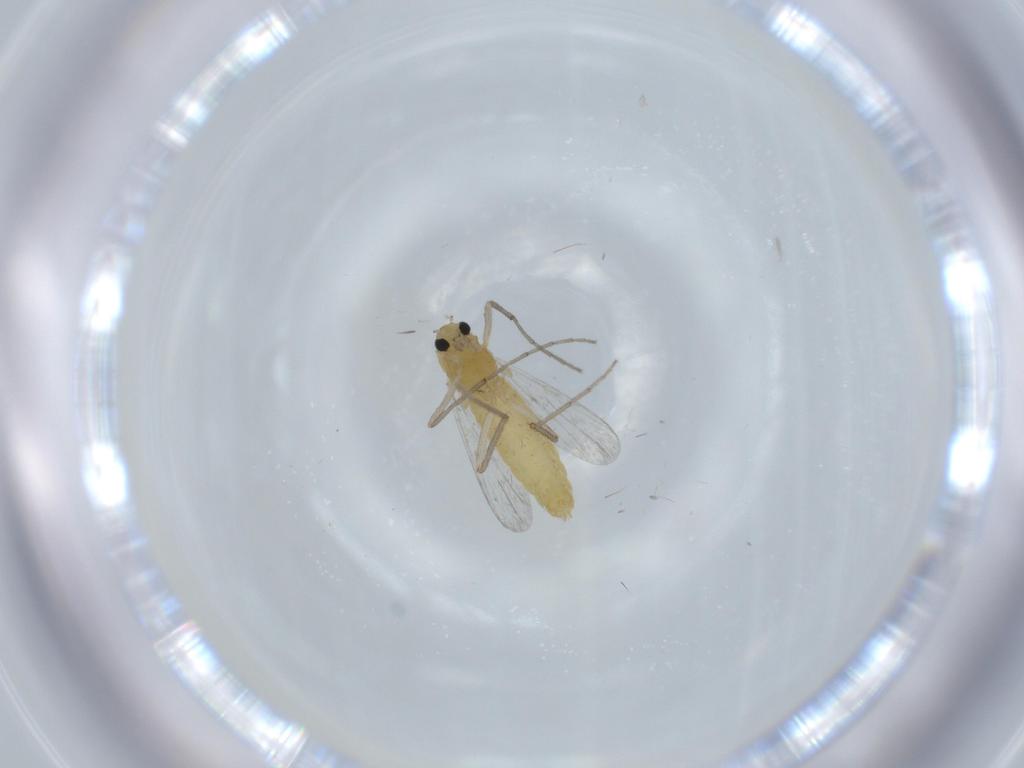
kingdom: Animalia
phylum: Arthropoda
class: Insecta
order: Diptera
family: Chironomidae
